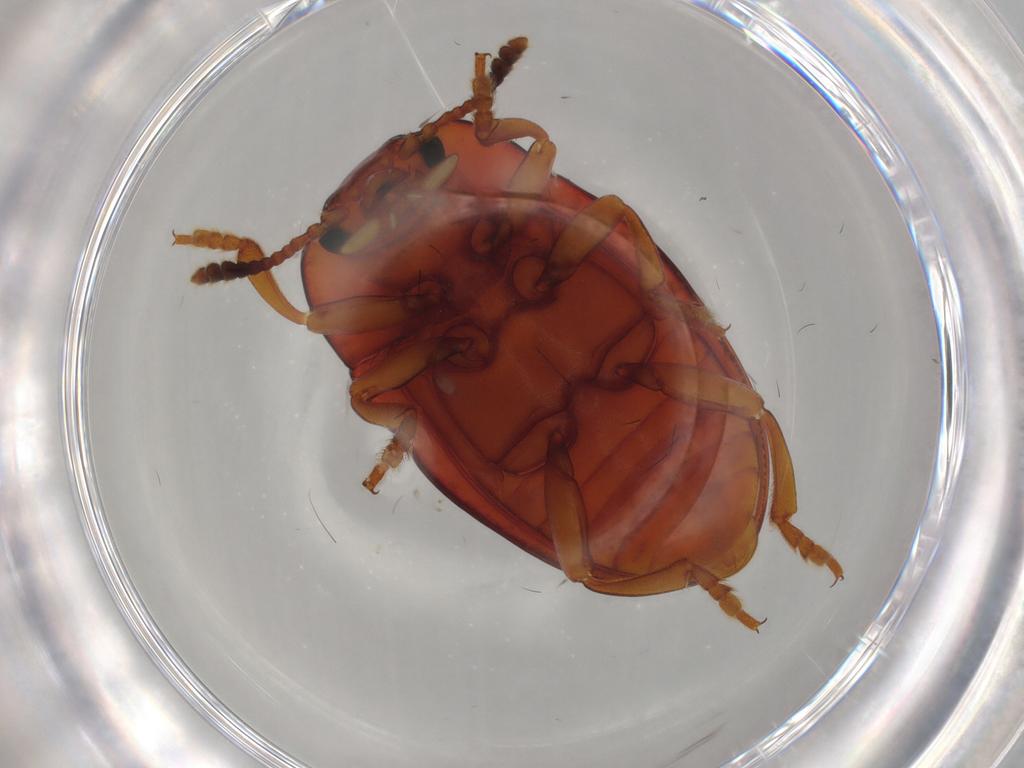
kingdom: Animalia
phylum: Arthropoda
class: Insecta
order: Coleoptera
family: Erotylidae
